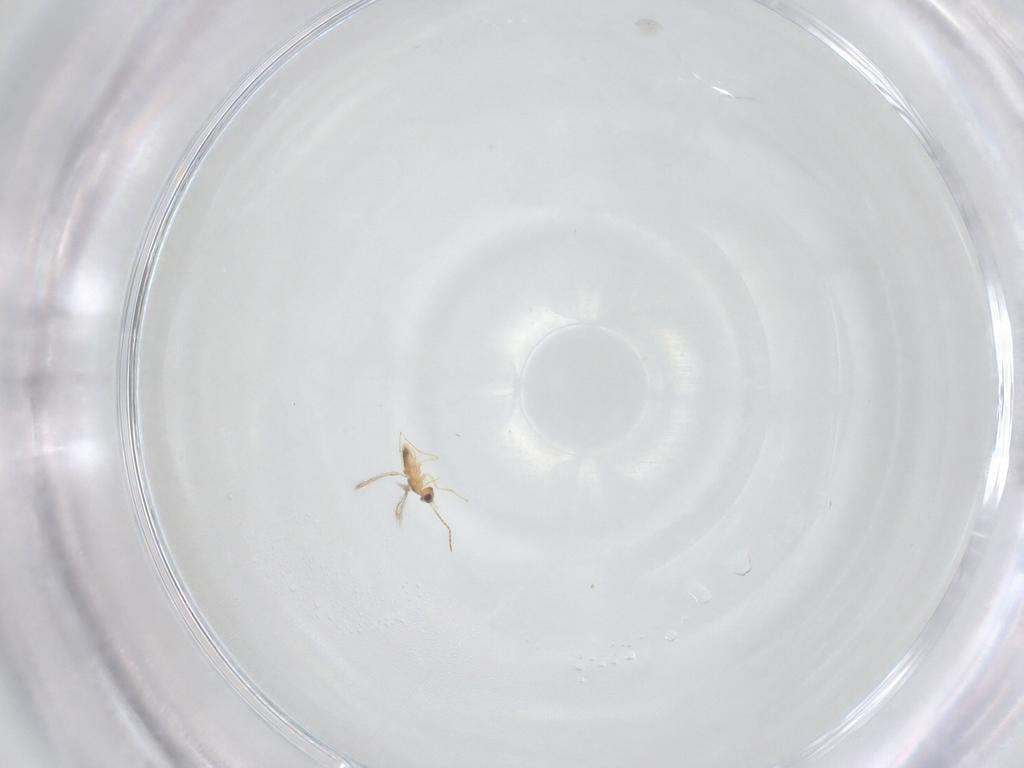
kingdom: Animalia
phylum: Arthropoda
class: Insecta
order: Hymenoptera
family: Ichneumonidae
